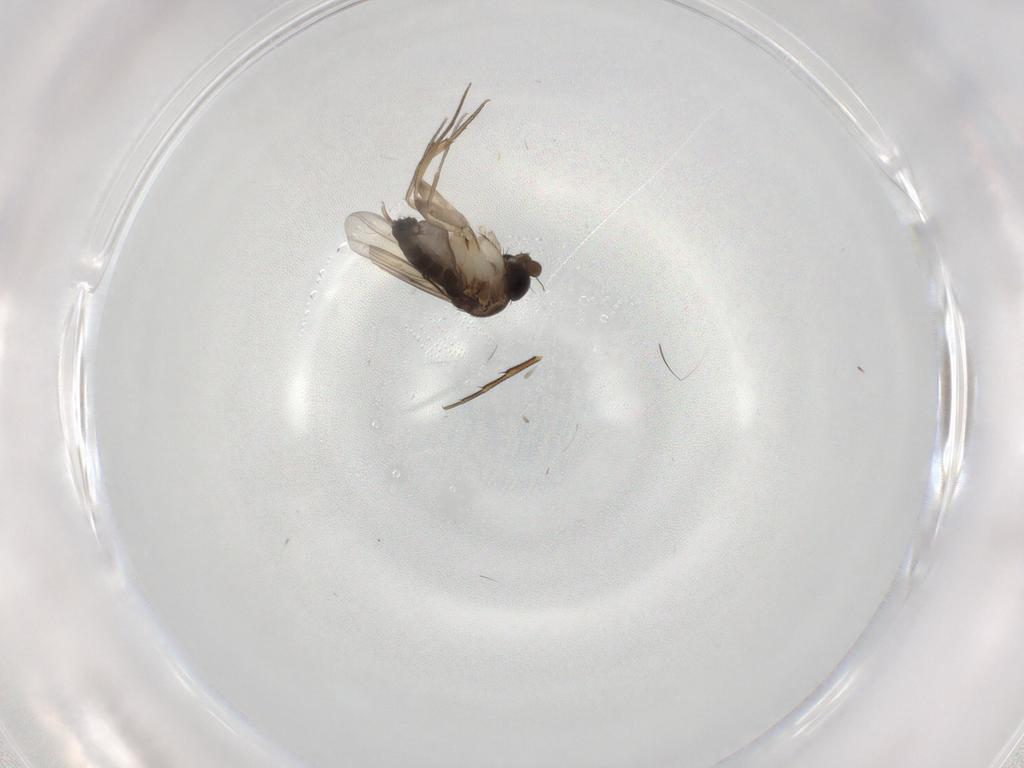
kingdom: Animalia
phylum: Arthropoda
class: Insecta
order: Diptera
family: Phoridae
